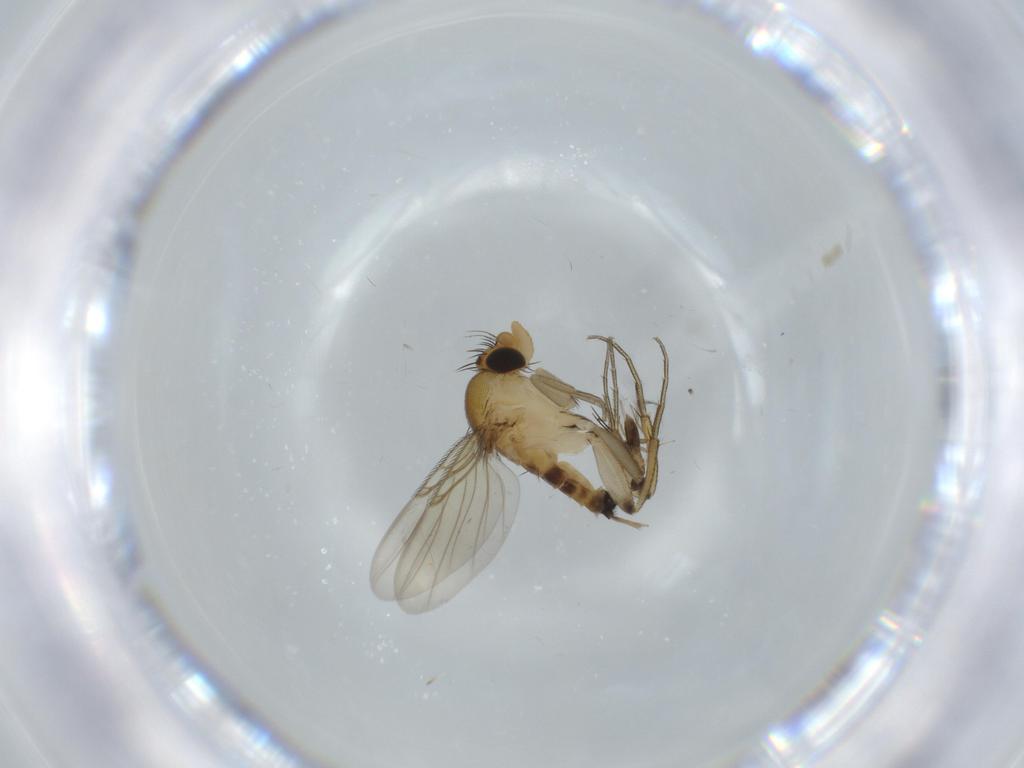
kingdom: Animalia
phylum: Arthropoda
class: Insecta
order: Diptera
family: Phoridae
